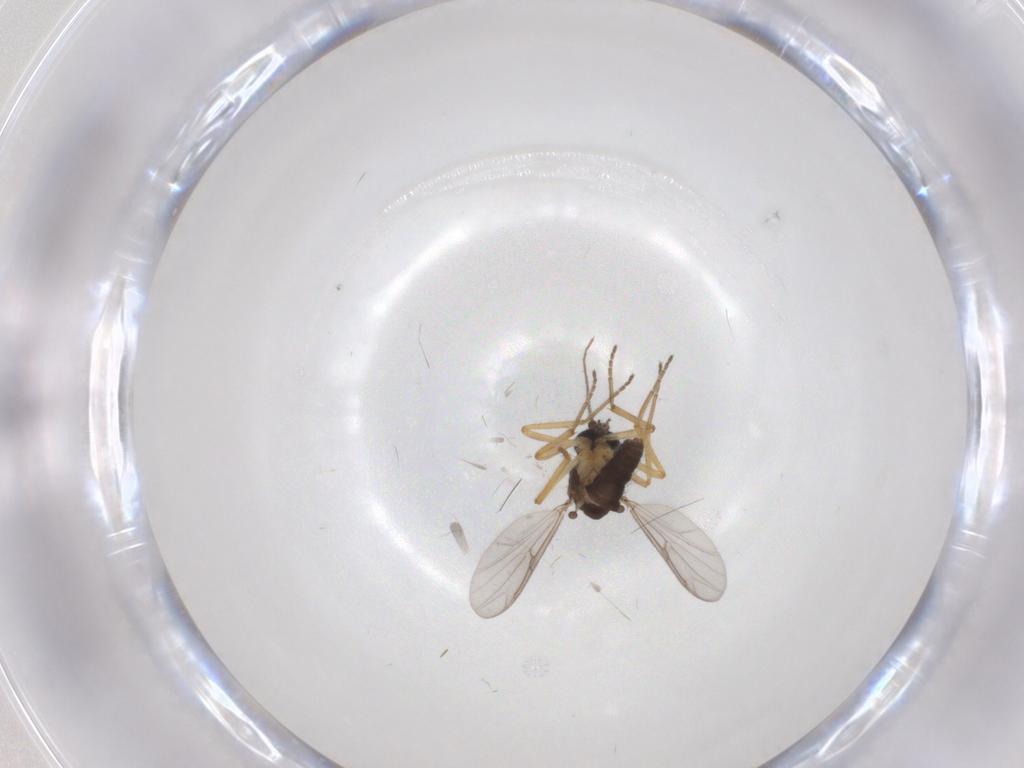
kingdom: Animalia
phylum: Arthropoda
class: Insecta
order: Diptera
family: Ceratopogonidae
